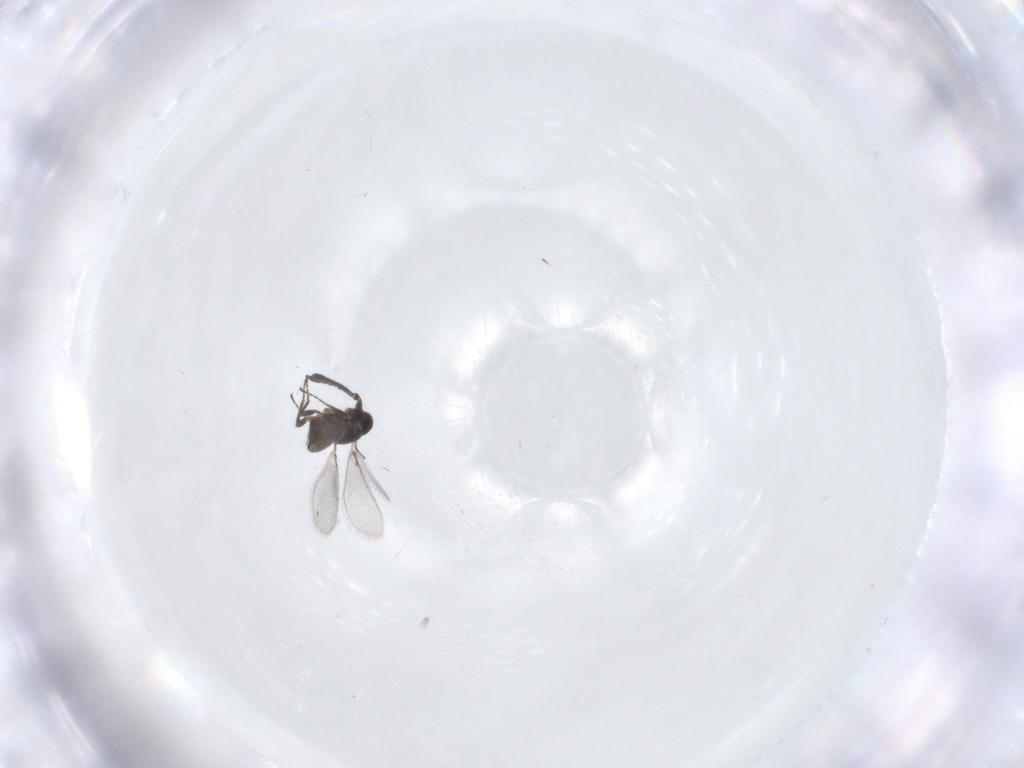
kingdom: Animalia
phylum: Arthropoda
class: Insecta
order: Hymenoptera
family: Mymaridae
